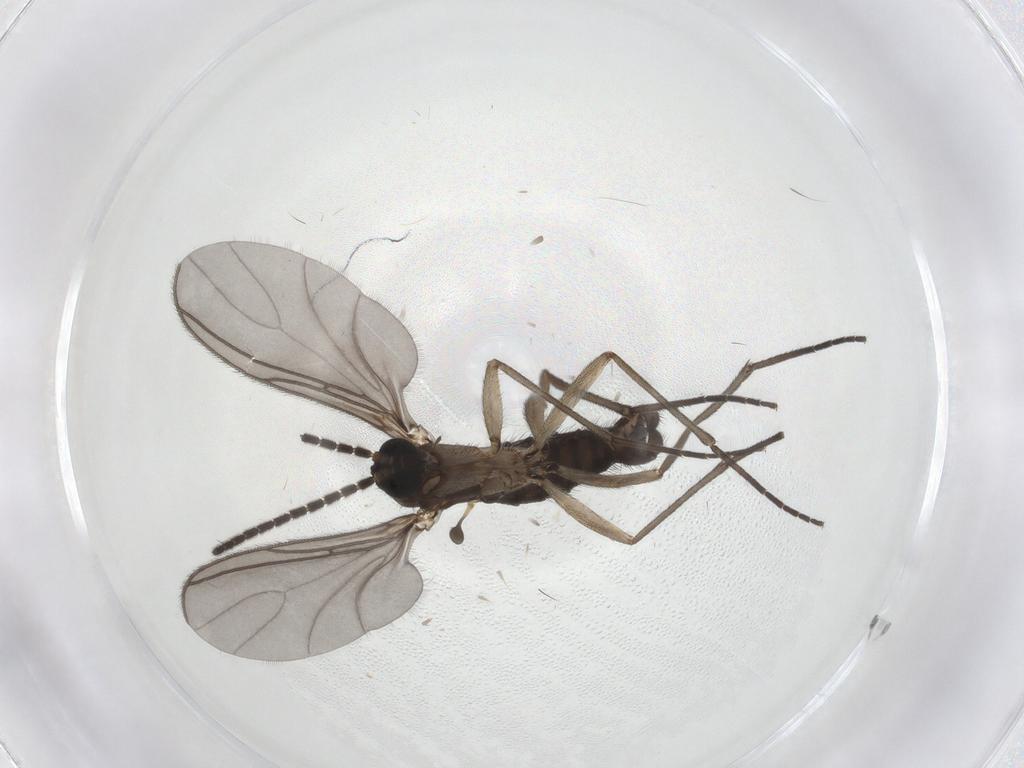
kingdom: Animalia
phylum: Arthropoda
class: Insecta
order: Diptera
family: Sciaridae
